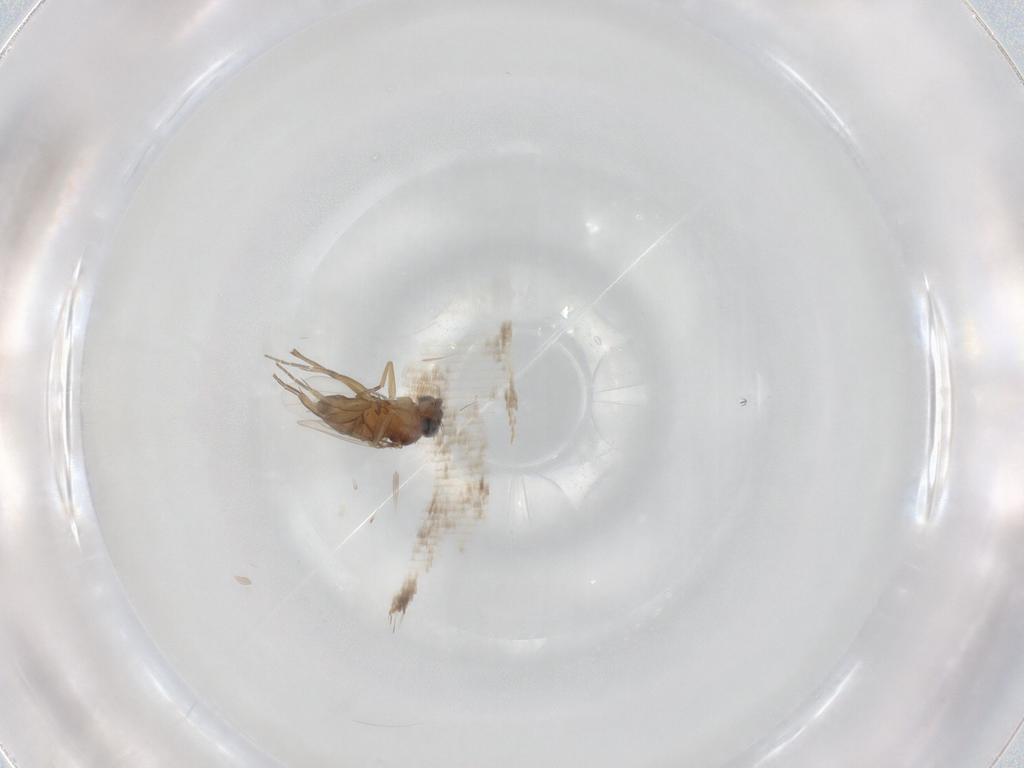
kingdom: Animalia
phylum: Arthropoda
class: Insecta
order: Diptera
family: Phoridae
